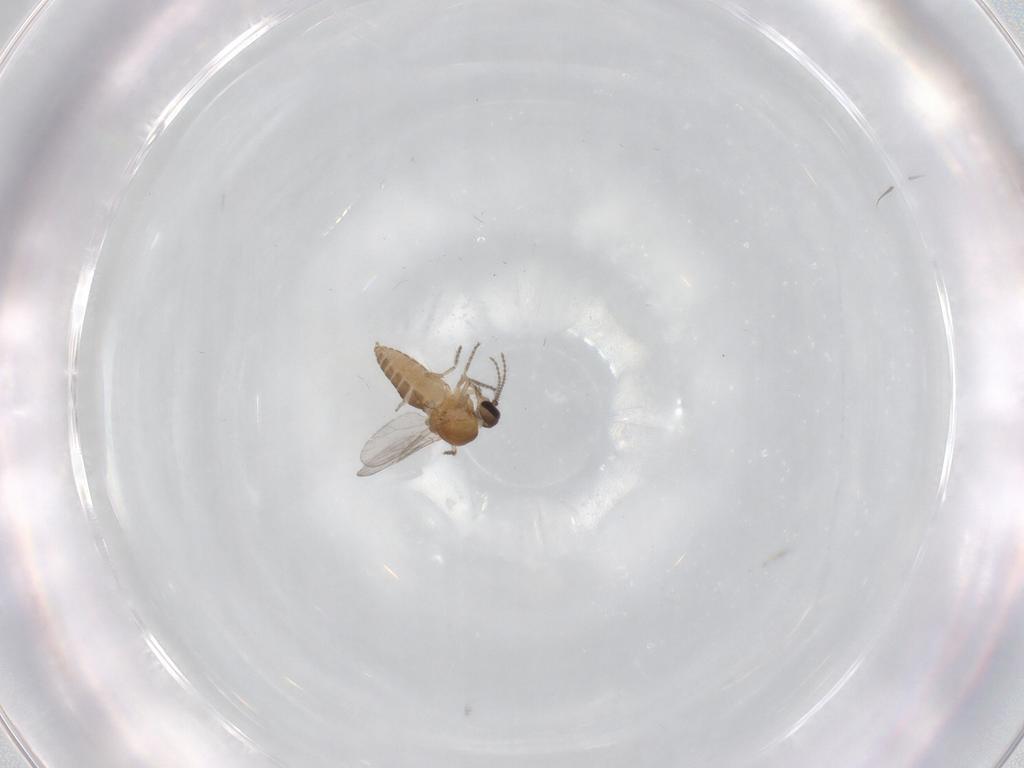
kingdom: Animalia
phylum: Arthropoda
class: Insecta
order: Diptera
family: Ceratopogonidae
